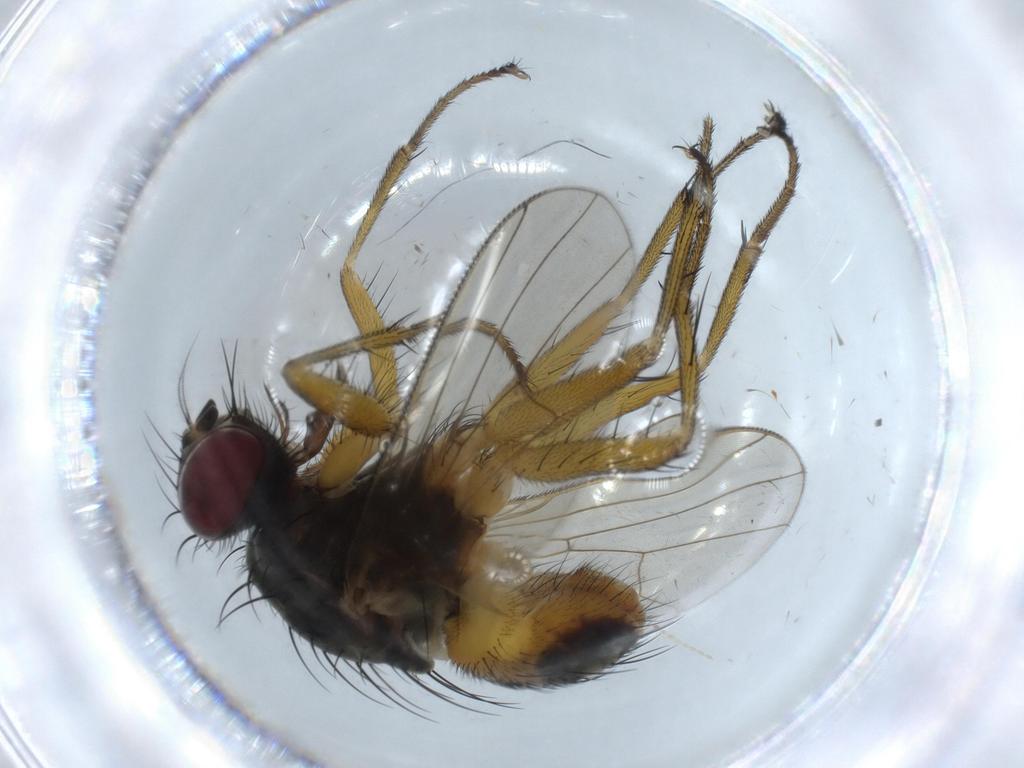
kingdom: Animalia
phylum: Arthropoda
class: Insecta
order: Diptera
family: Muscidae
